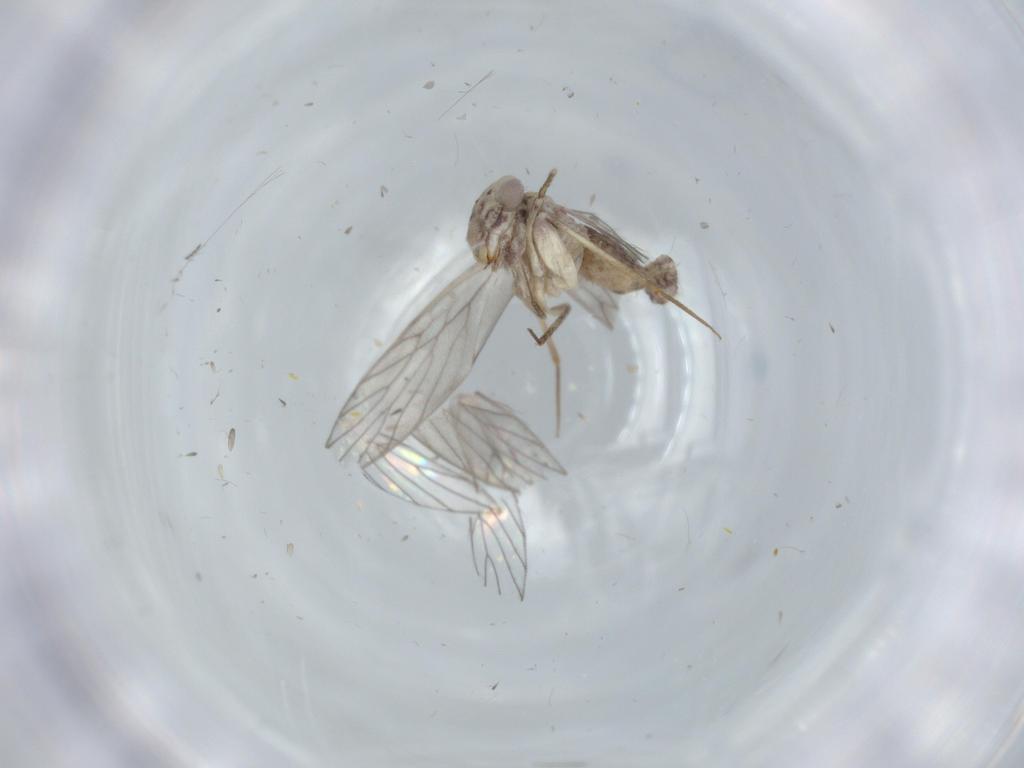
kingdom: Animalia
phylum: Arthropoda
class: Insecta
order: Psocodea
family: Lepidopsocidae
